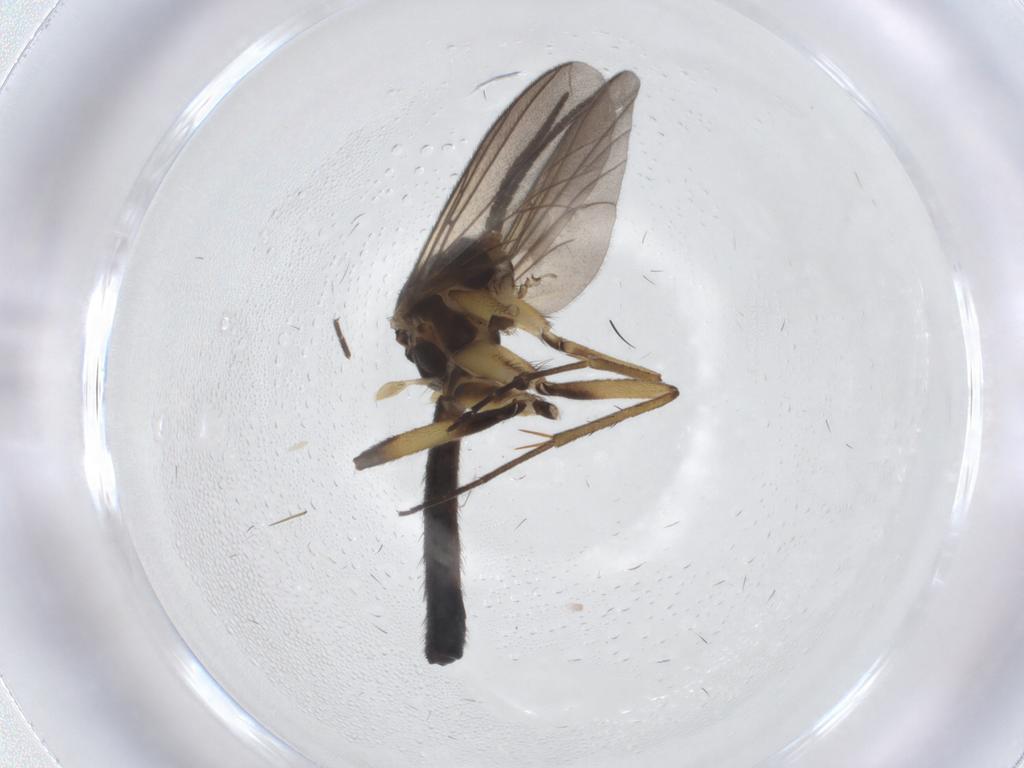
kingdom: Animalia
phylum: Arthropoda
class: Insecta
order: Diptera
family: Mycetophilidae
